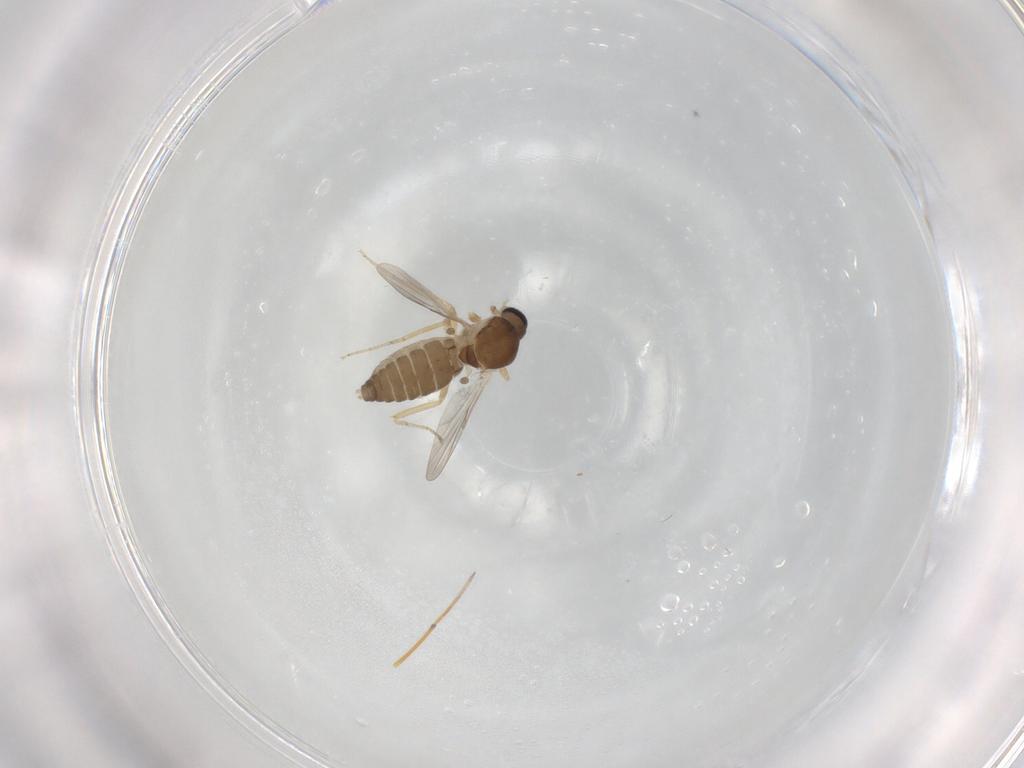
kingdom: Animalia
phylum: Arthropoda
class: Insecta
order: Diptera
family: Ceratopogonidae
